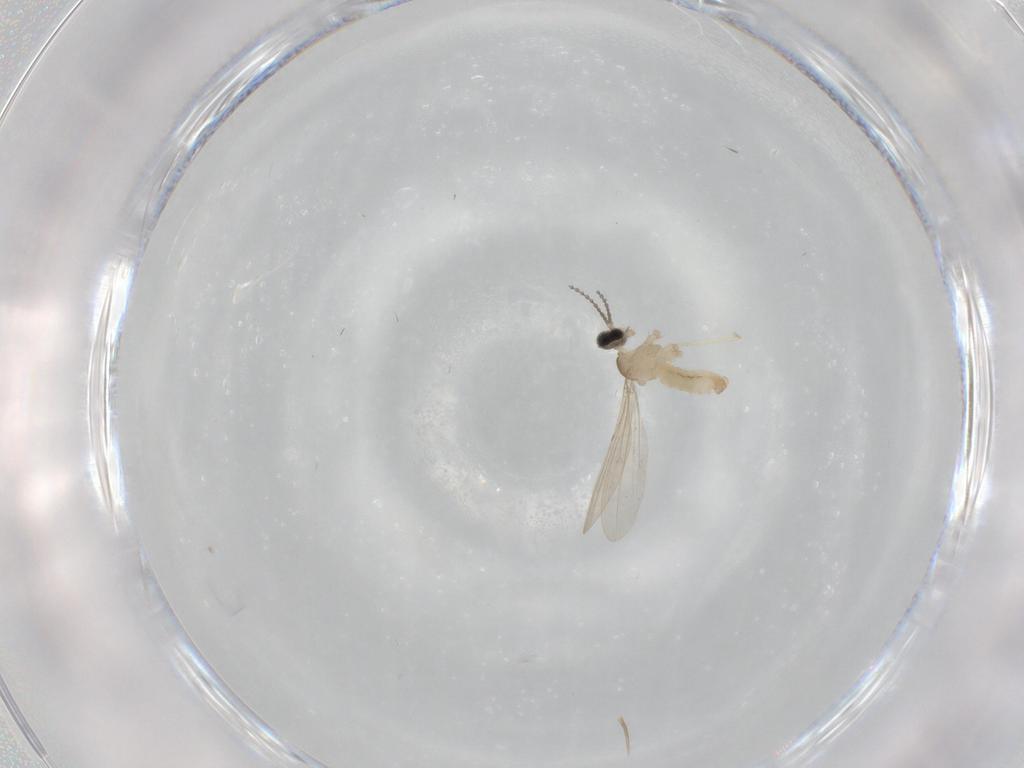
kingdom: Animalia
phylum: Arthropoda
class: Insecta
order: Diptera
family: Cecidomyiidae
